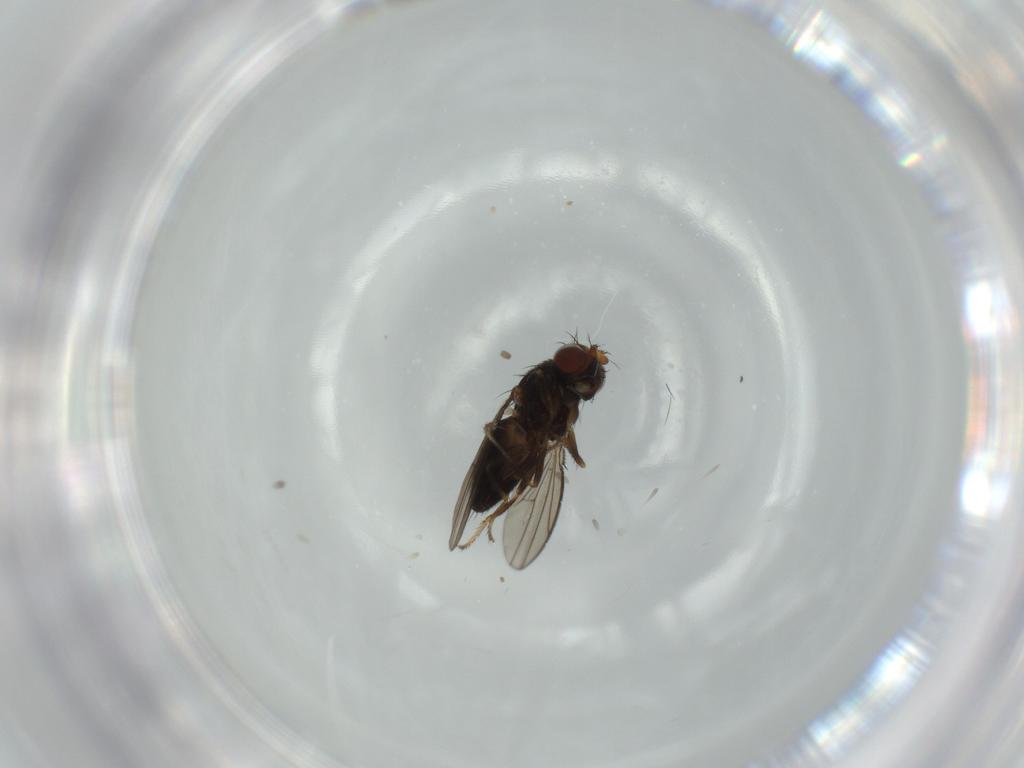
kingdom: Animalia
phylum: Arthropoda
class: Insecta
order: Diptera
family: Ephydridae
